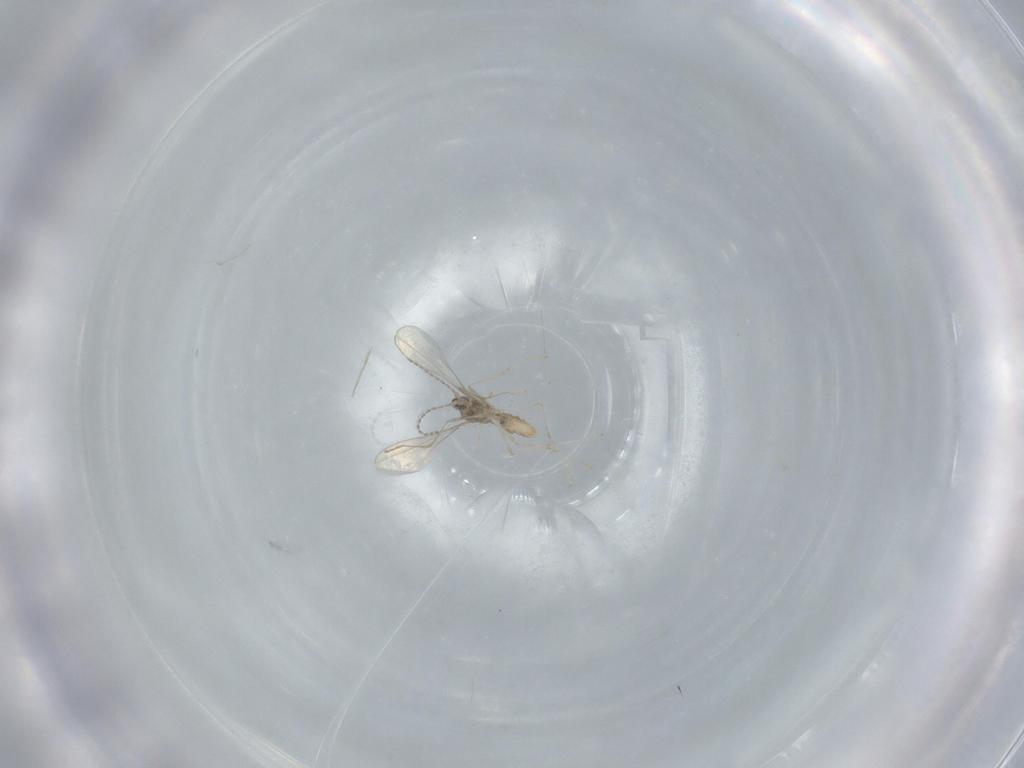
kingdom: Animalia
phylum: Arthropoda
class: Insecta
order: Diptera
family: Cecidomyiidae
